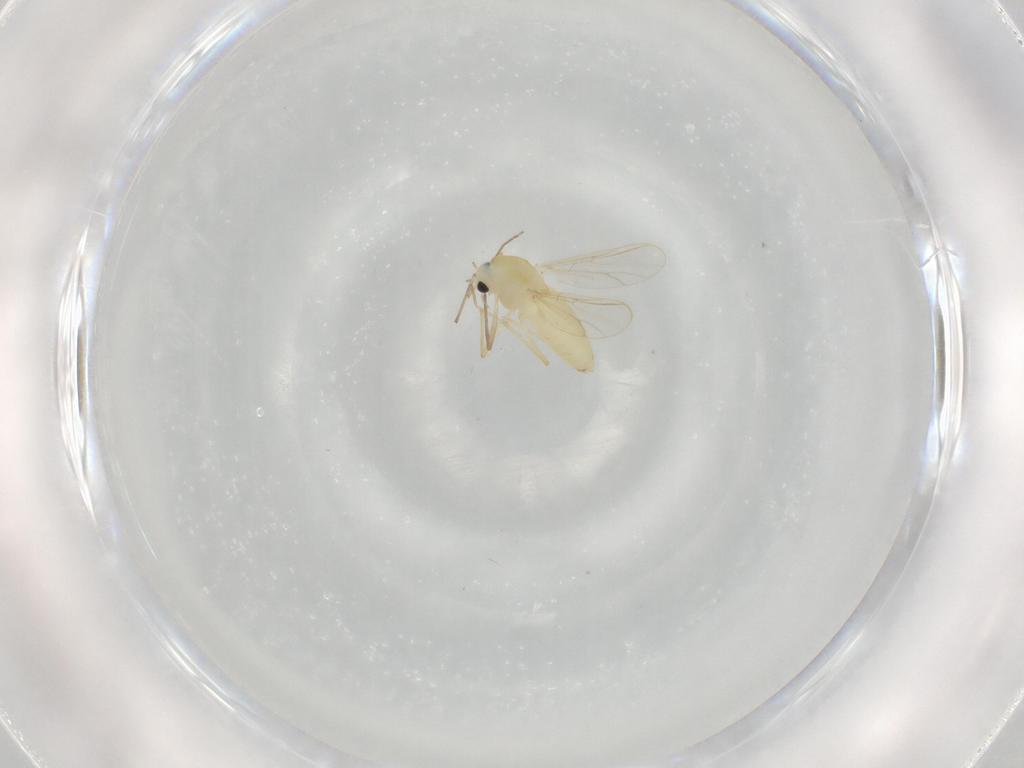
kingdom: Animalia
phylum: Arthropoda
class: Insecta
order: Diptera
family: Chironomidae
